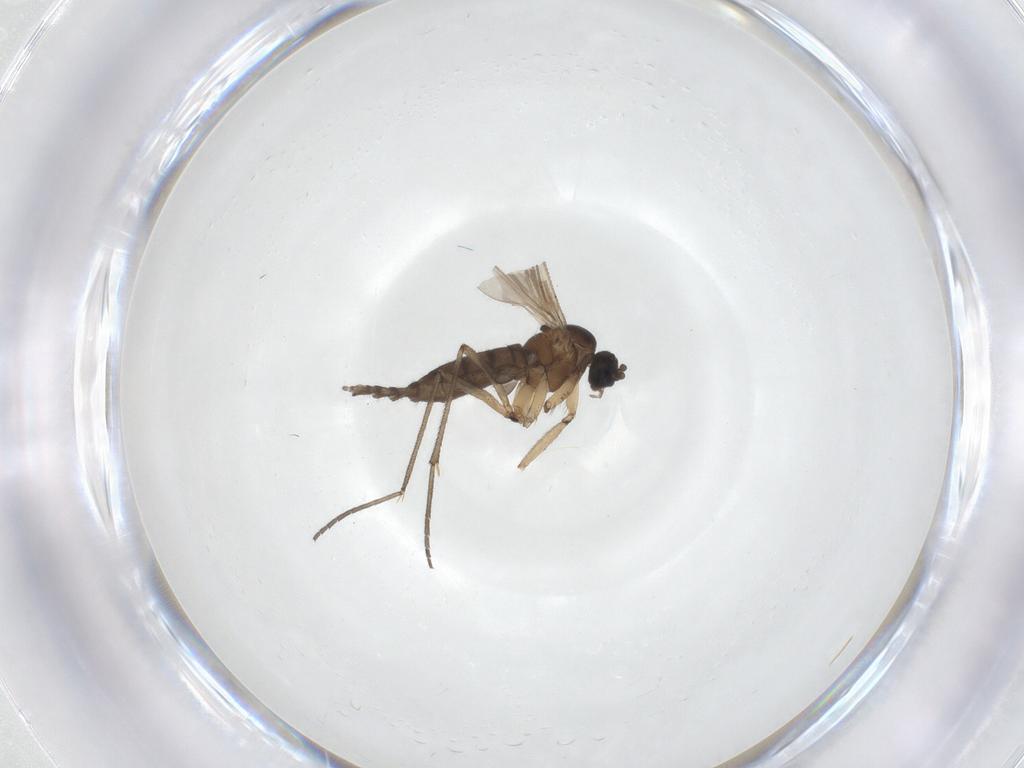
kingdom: Animalia
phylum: Arthropoda
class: Insecta
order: Diptera
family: Sciaridae
